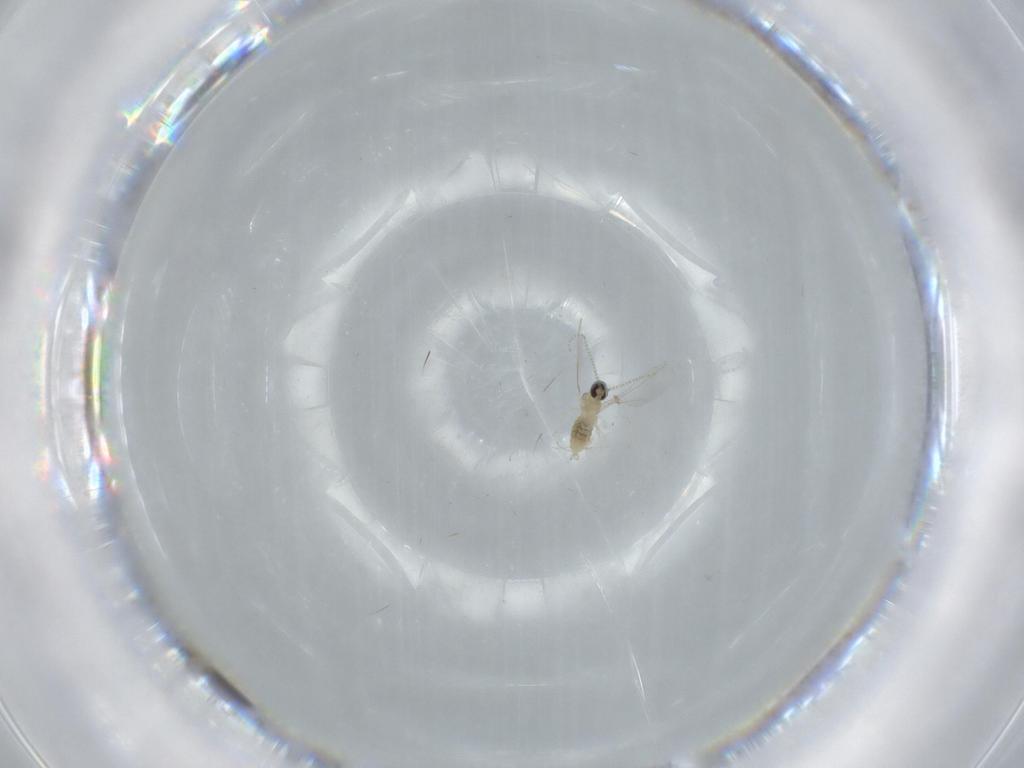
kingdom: Animalia
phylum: Arthropoda
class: Insecta
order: Diptera
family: Phoridae
